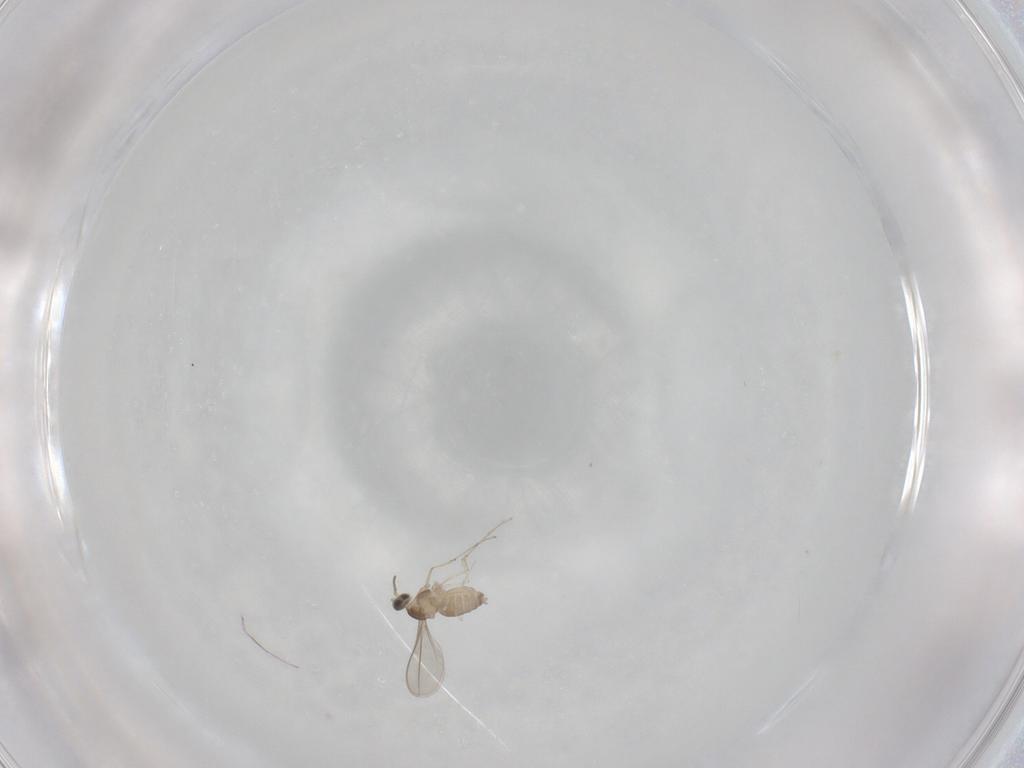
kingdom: Animalia
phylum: Arthropoda
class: Insecta
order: Diptera
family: Cecidomyiidae
